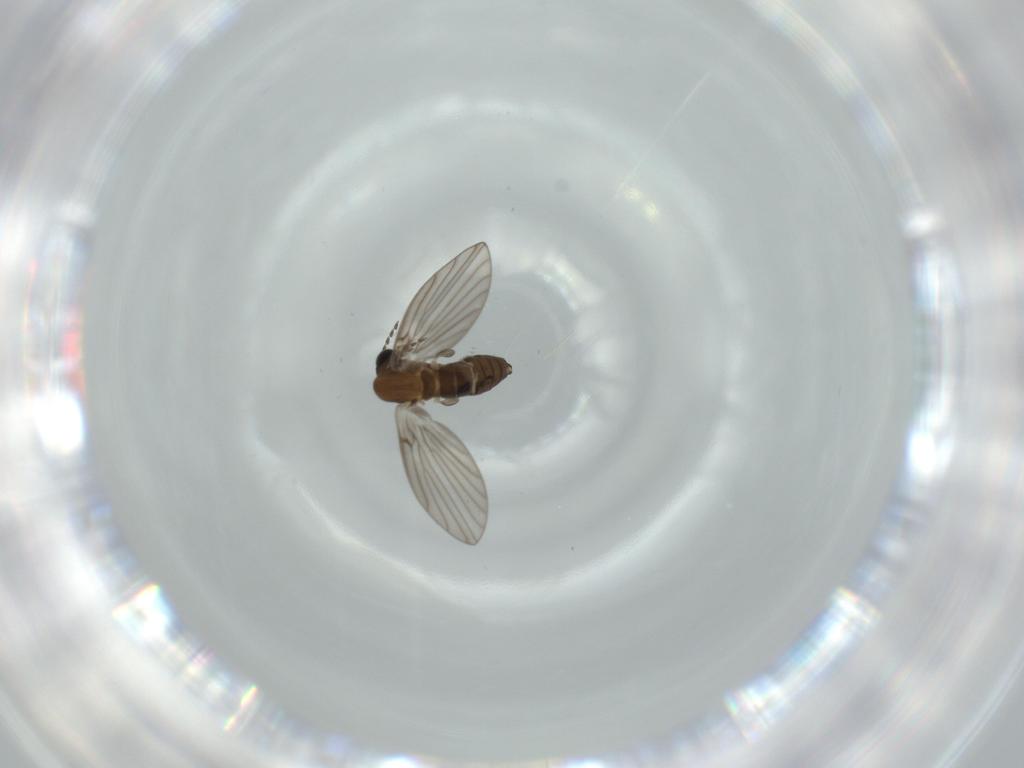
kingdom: Animalia
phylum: Arthropoda
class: Insecta
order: Diptera
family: Psychodidae
